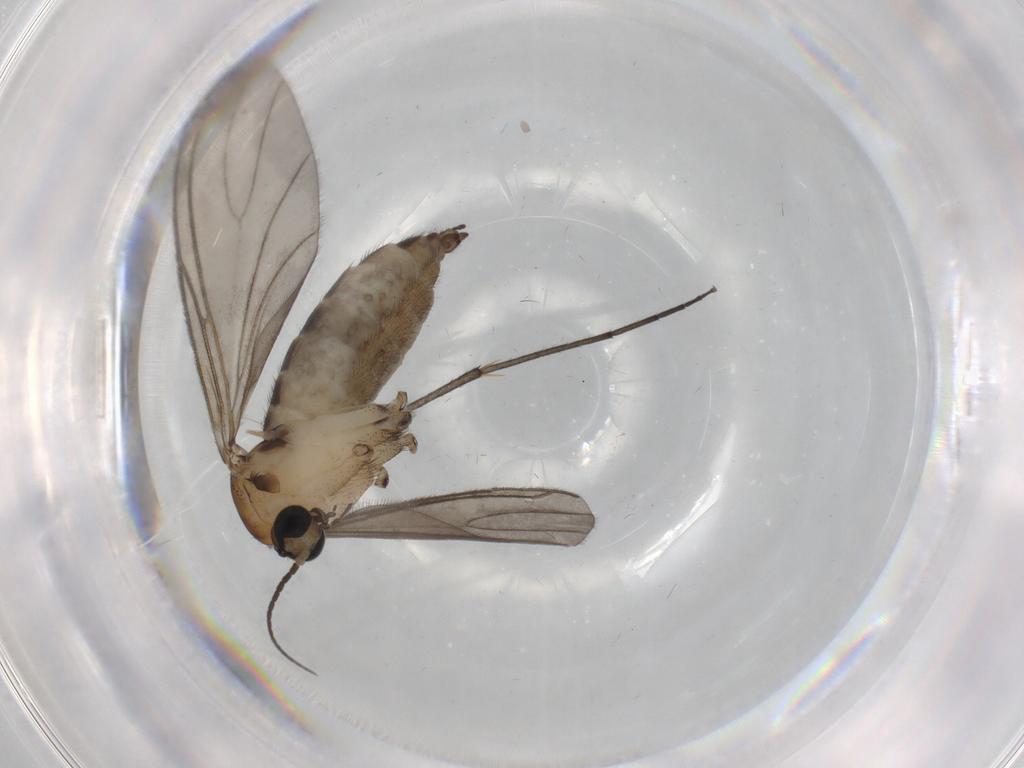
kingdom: Animalia
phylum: Arthropoda
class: Insecta
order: Diptera
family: Sciaridae
